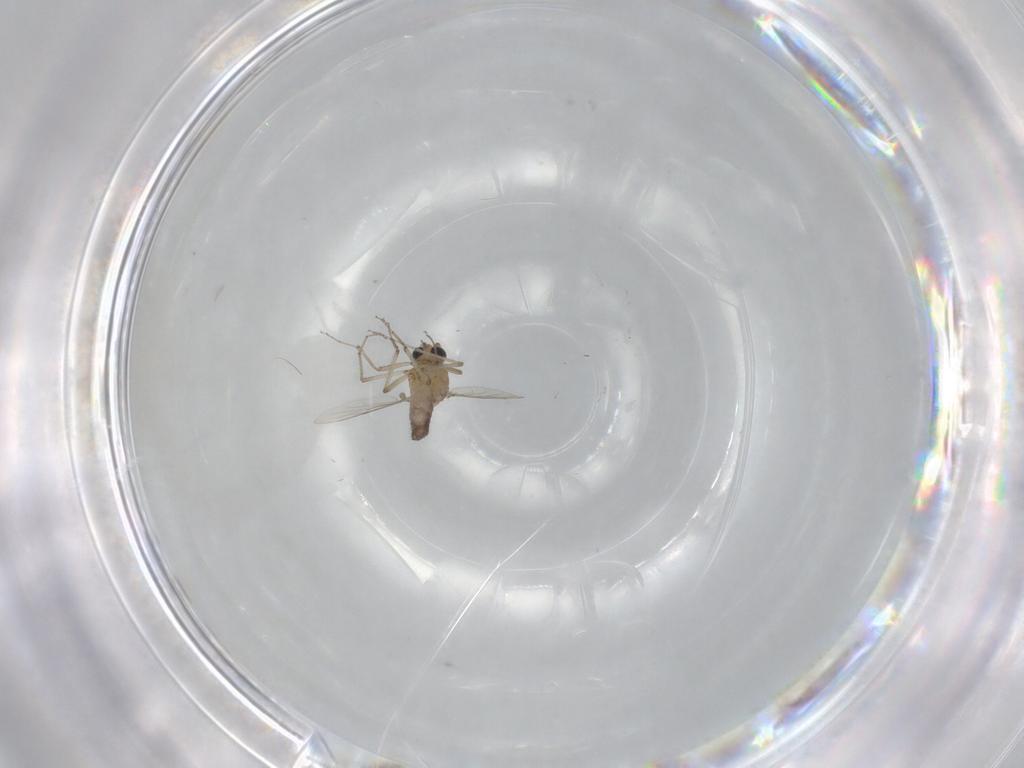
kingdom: Animalia
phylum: Arthropoda
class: Insecta
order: Diptera
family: Ceratopogonidae
